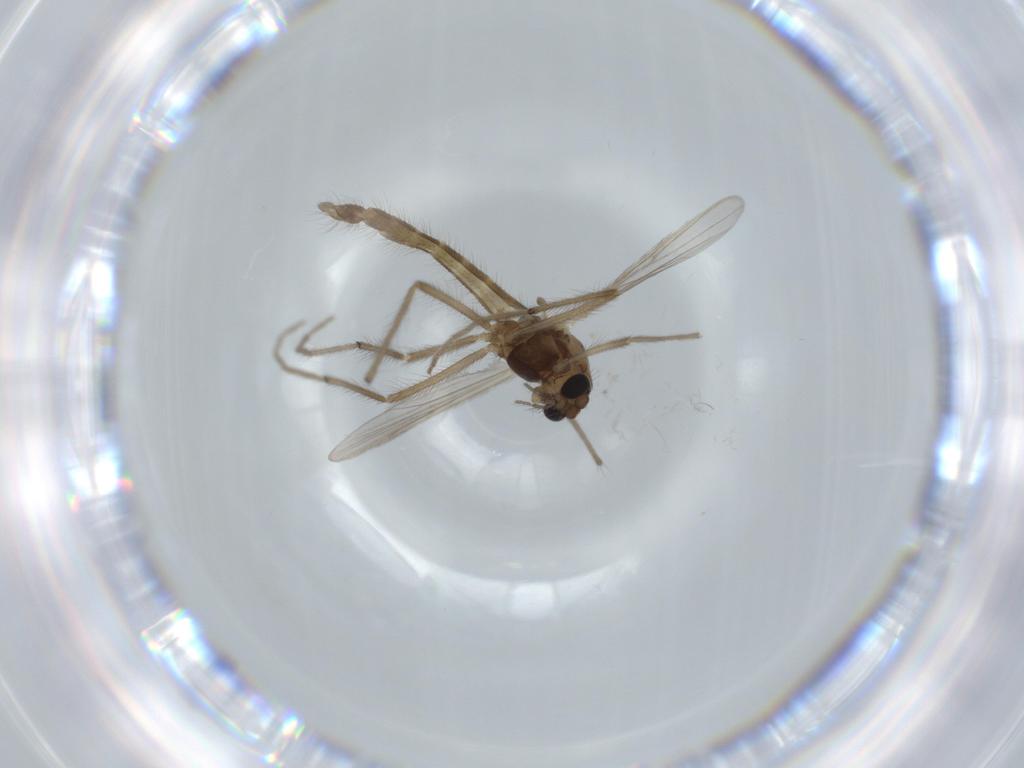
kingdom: Animalia
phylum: Arthropoda
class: Insecta
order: Diptera
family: Chironomidae
